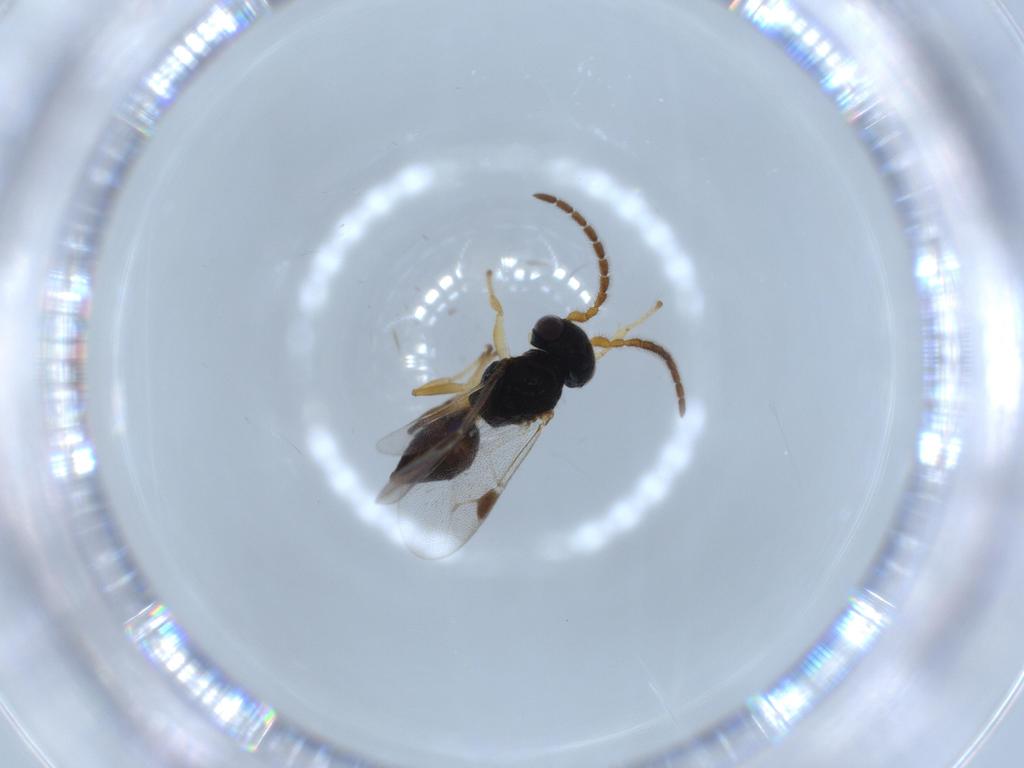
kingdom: Animalia
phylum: Arthropoda
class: Insecta
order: Hymenoptera
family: Dryinidae
